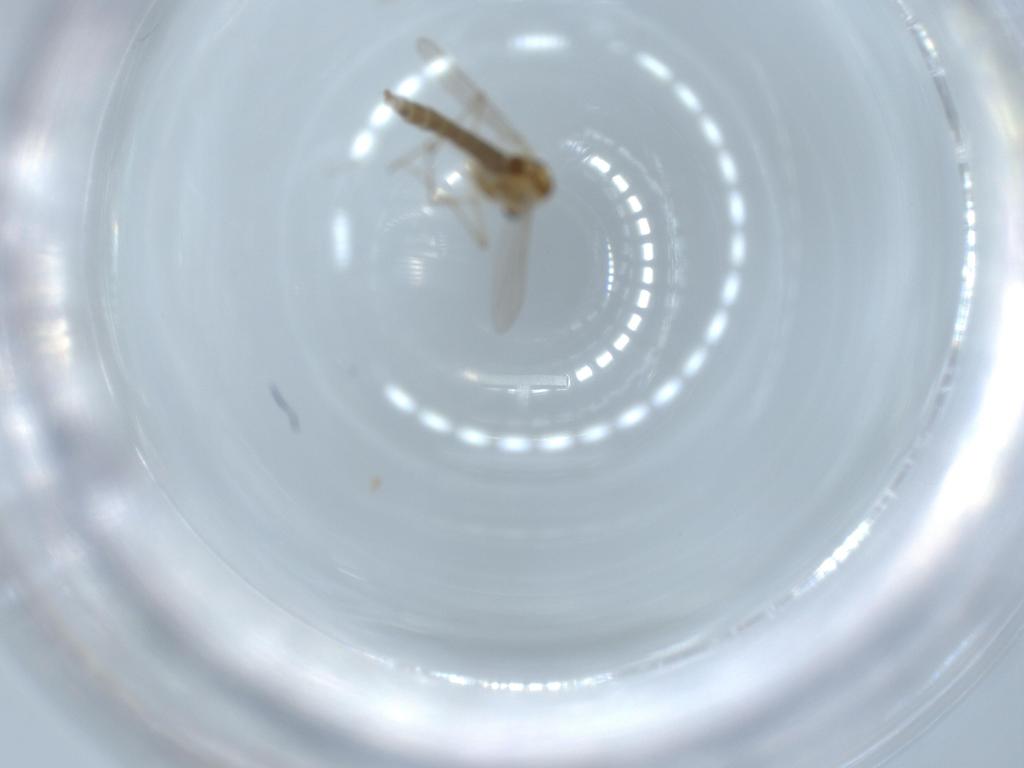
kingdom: Animalia
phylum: Arthropoda
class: Insecta
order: Diptera
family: Chironomidae
